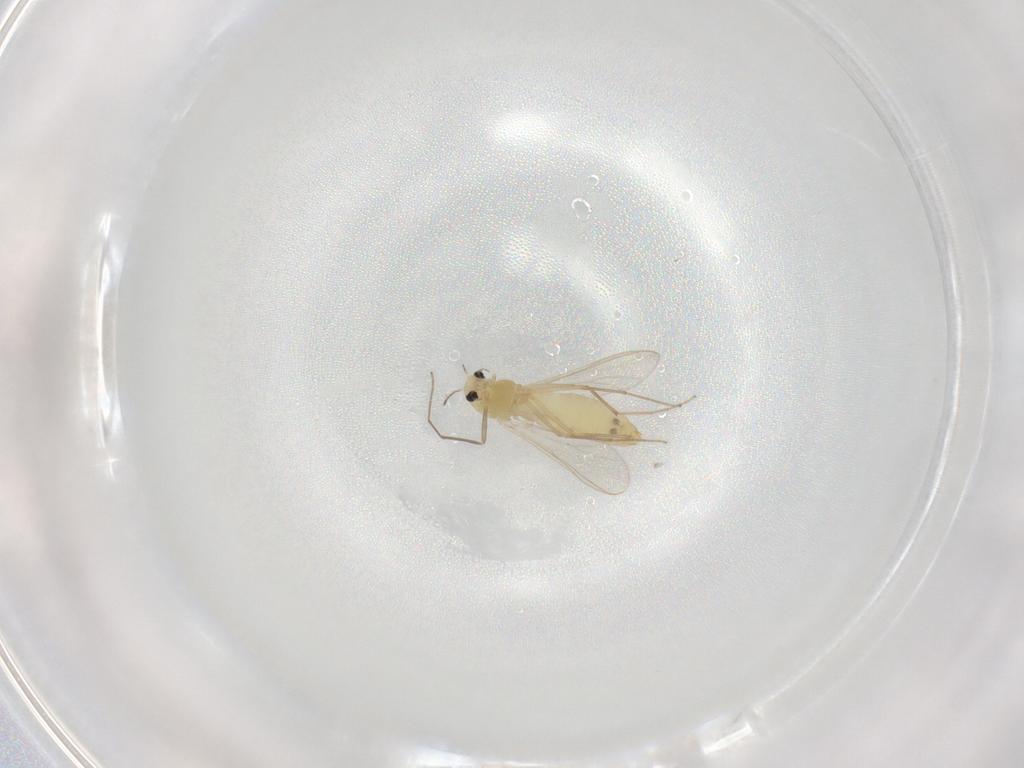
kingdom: Animalia
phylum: Arthropoda
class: Insecta
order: Diptera
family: Chironomidae
